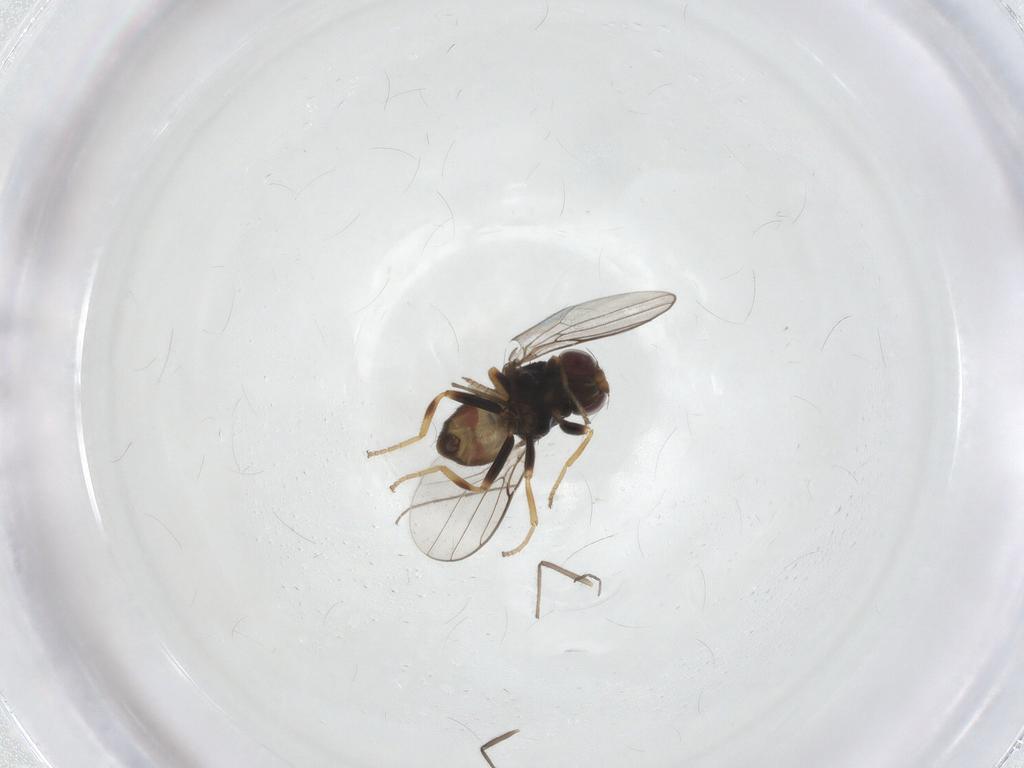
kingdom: Animalia
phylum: Arthropoda
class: Insecta
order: Diptera
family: Chloropidae
